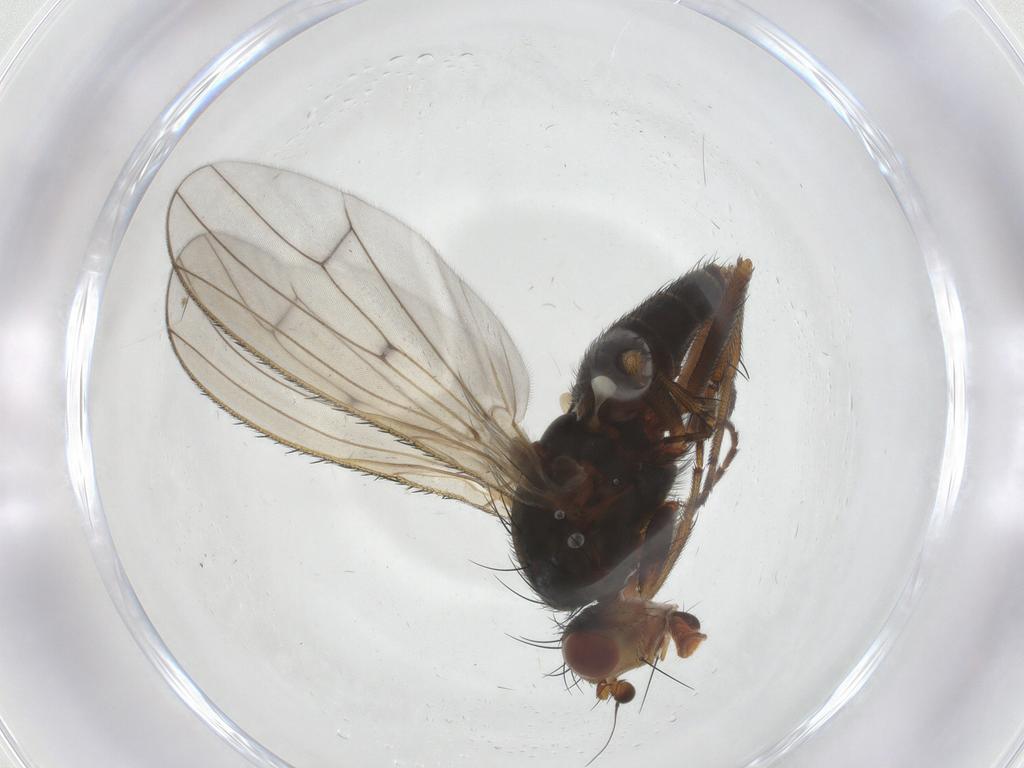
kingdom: Animalia
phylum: Arthropoda
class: Insecta
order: Diptera
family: Heleomyzidae
